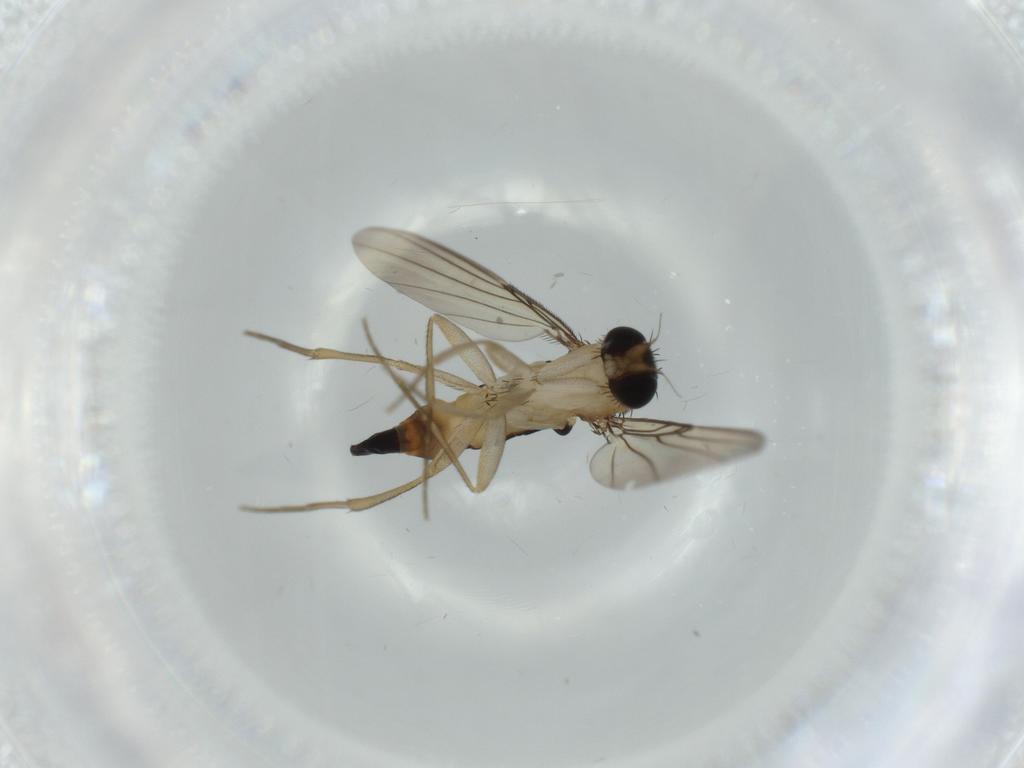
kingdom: Animalia
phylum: Arthropoda
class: Insecta
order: Diptera
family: Phoridae
